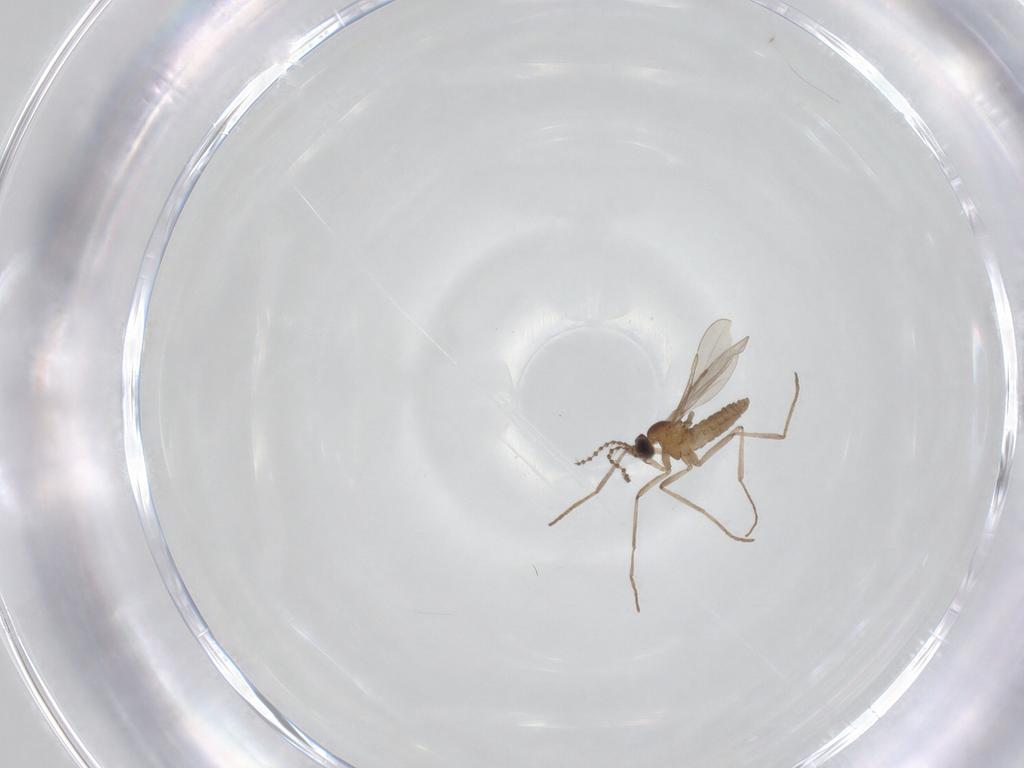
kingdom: Animalia
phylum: Arthropoda
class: Insecta
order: Diptera
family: Cecidomyiidae
